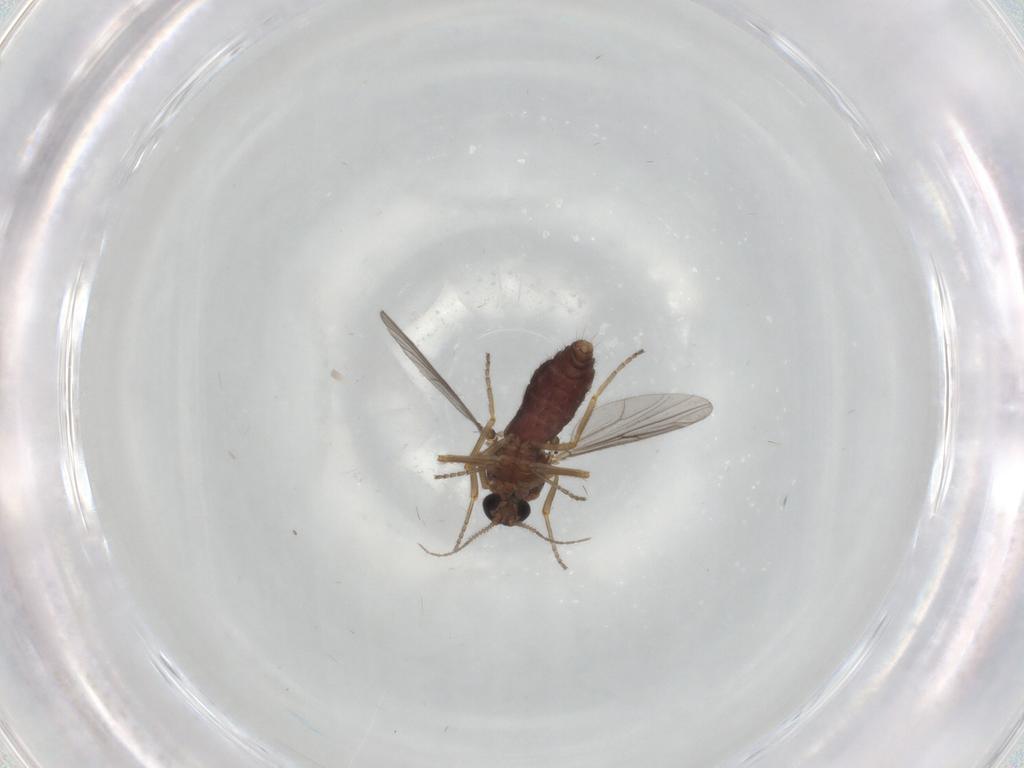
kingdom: Animalia
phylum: Arthropoda
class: Insecta
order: Diptera
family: Ceratopogonidae
